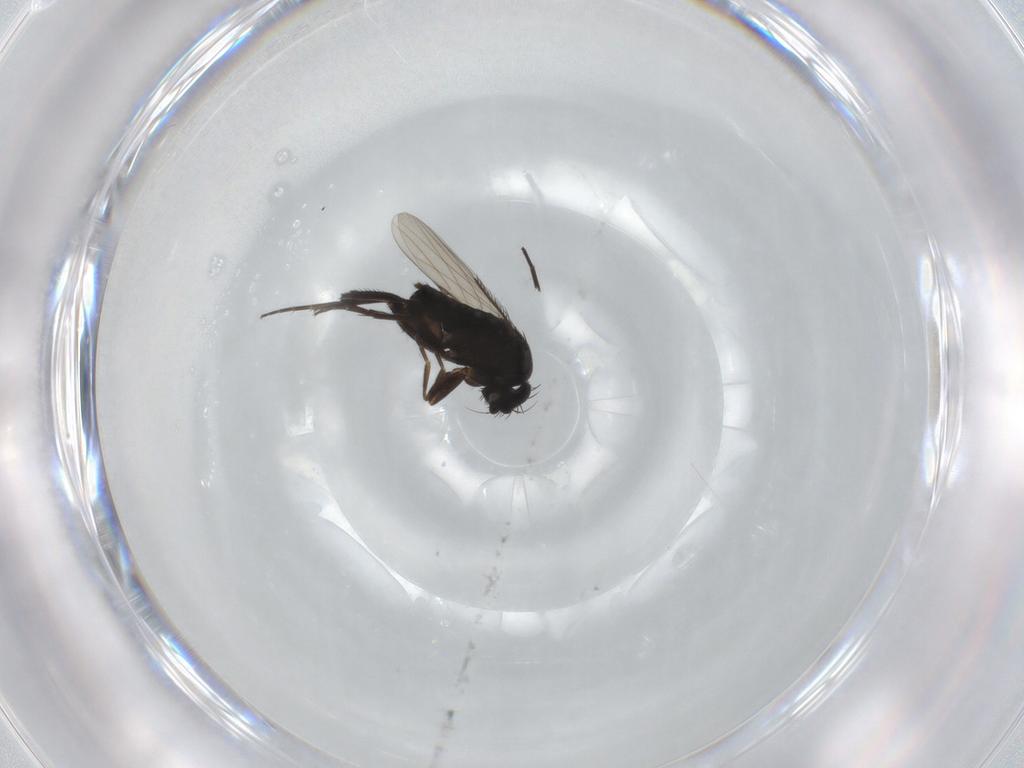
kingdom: Animalia
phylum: Arthropoda
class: Insecta
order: Diptera
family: Phoridae
